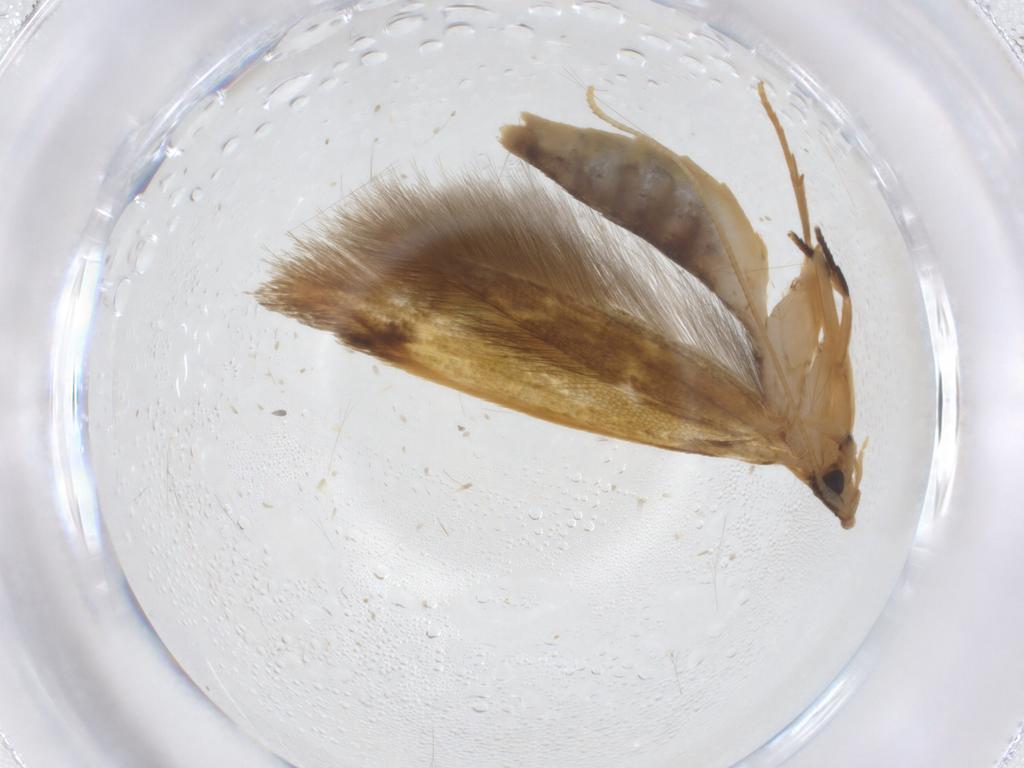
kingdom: Animalia
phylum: Arthropoda
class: Insecta
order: Lepidoptera
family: Tineidae
